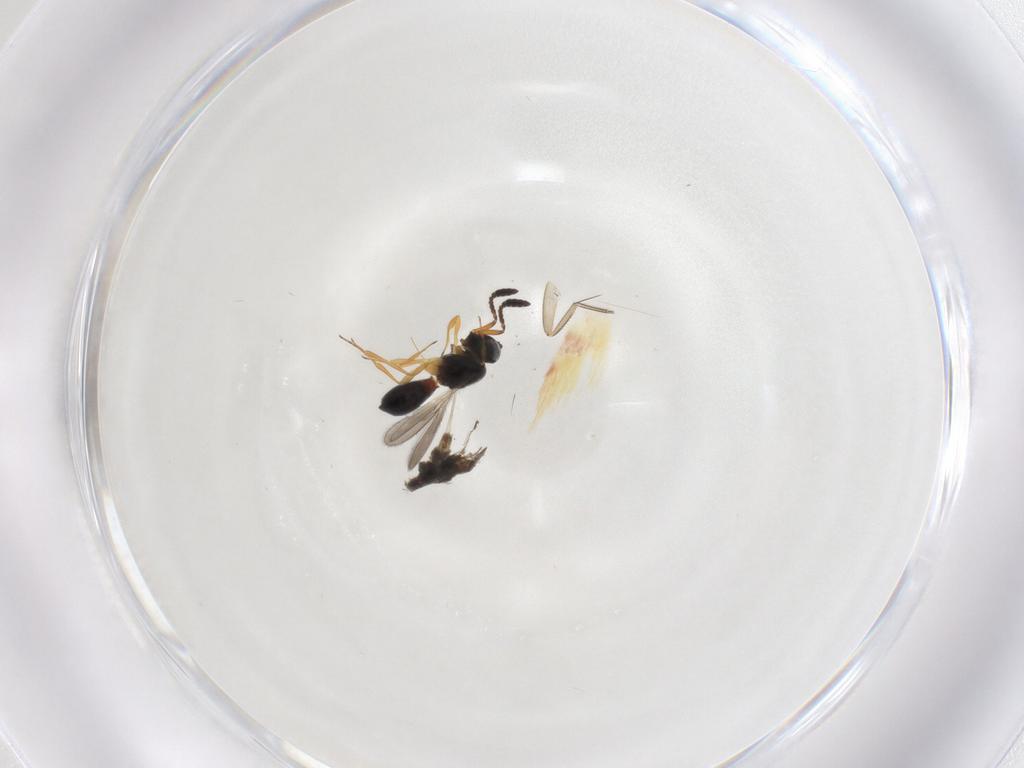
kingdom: Animalia
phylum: Arthropoda
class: Insecta
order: Hymenoptera
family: Scelionidae
